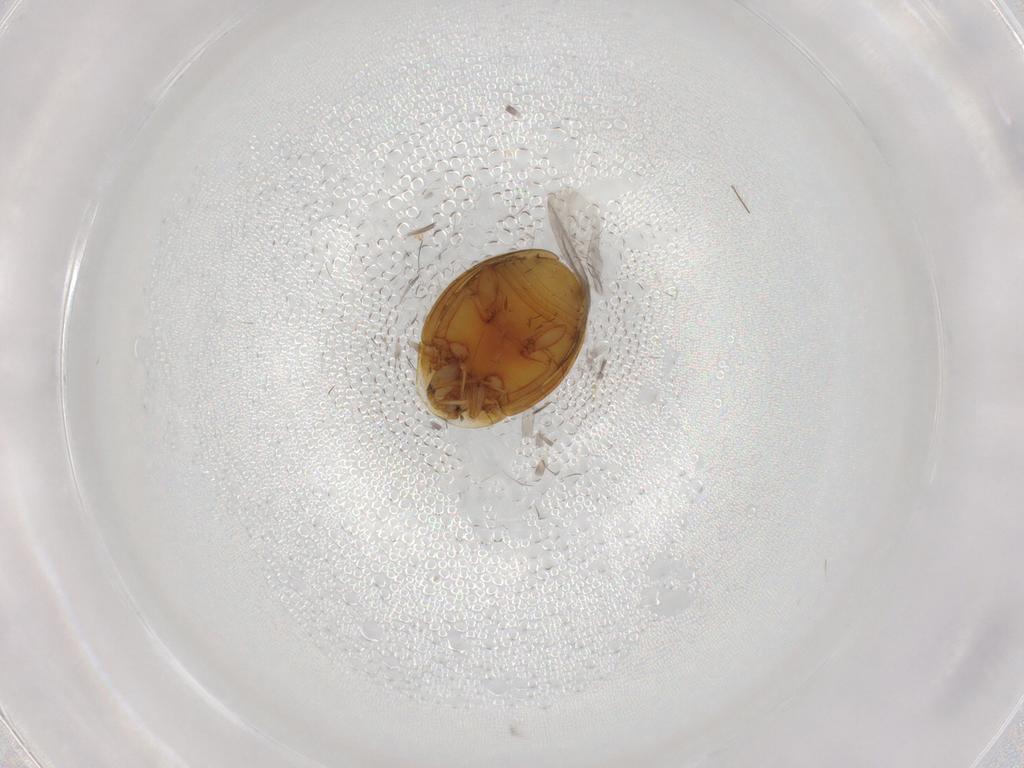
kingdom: Animalia
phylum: Arthropoda
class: Insecta
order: Coleoptera
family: Corylophidae
